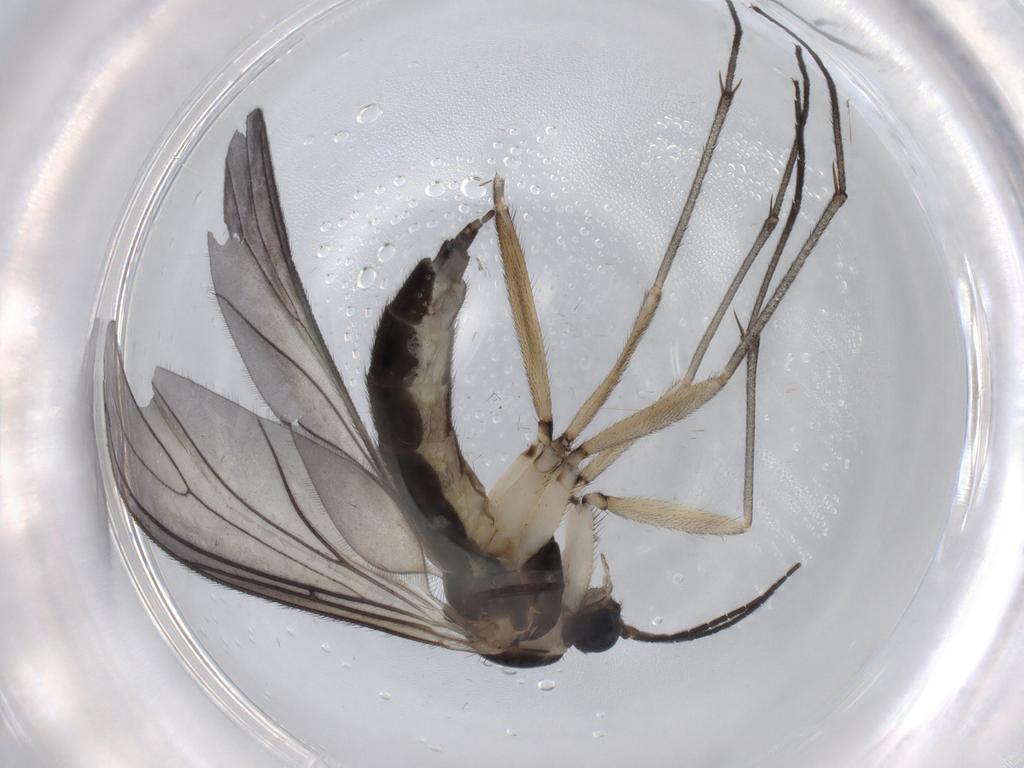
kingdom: Animalia
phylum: Arthropoda
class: Insecta
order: Diptera
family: Sciaridae
